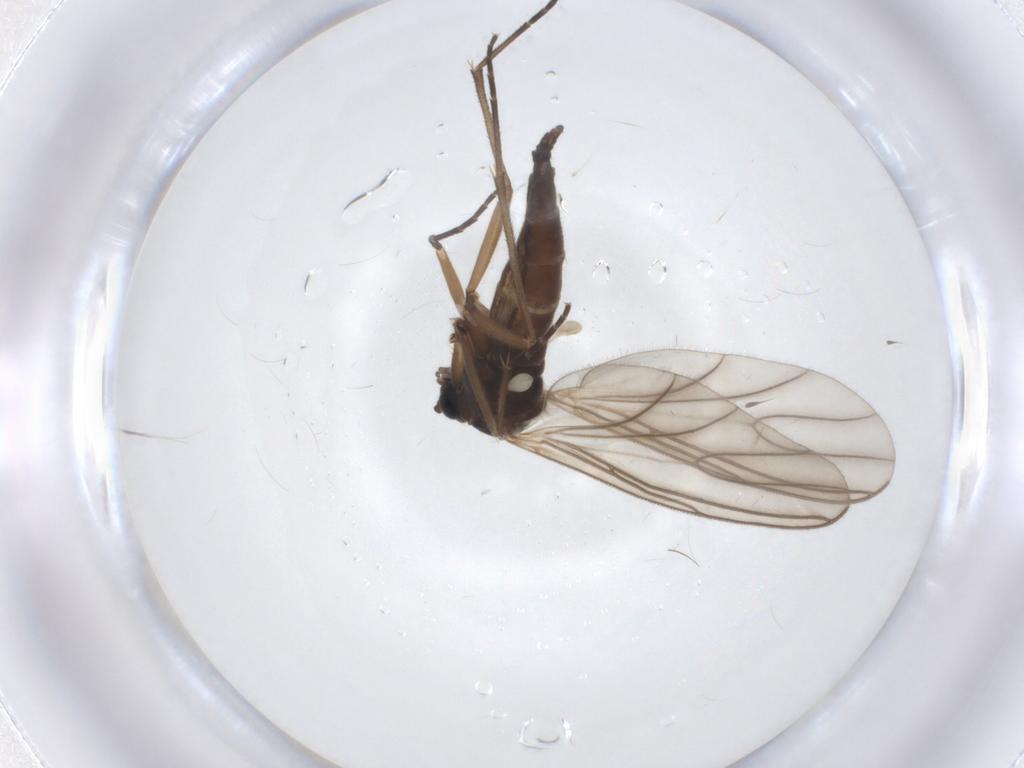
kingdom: Animalia
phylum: Arthropoda
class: Insecta
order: Diptera
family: Sciaridae
